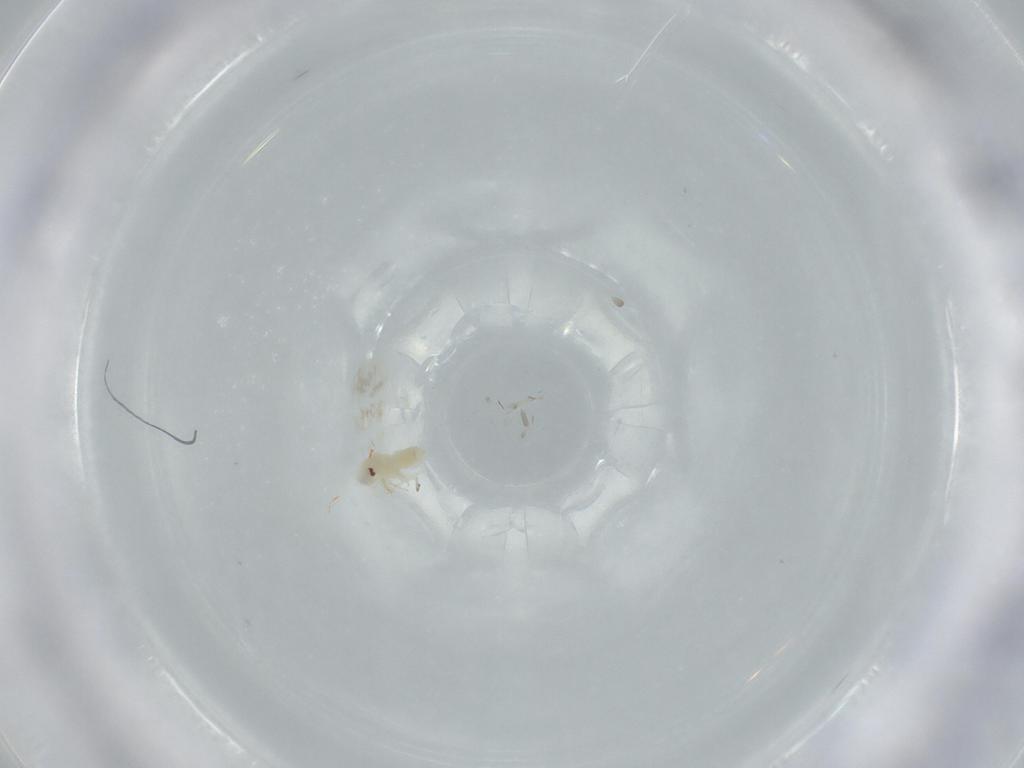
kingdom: Animalia
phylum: Arthropoda
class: Insecta
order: Hemiptera
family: Aleyrodidae
